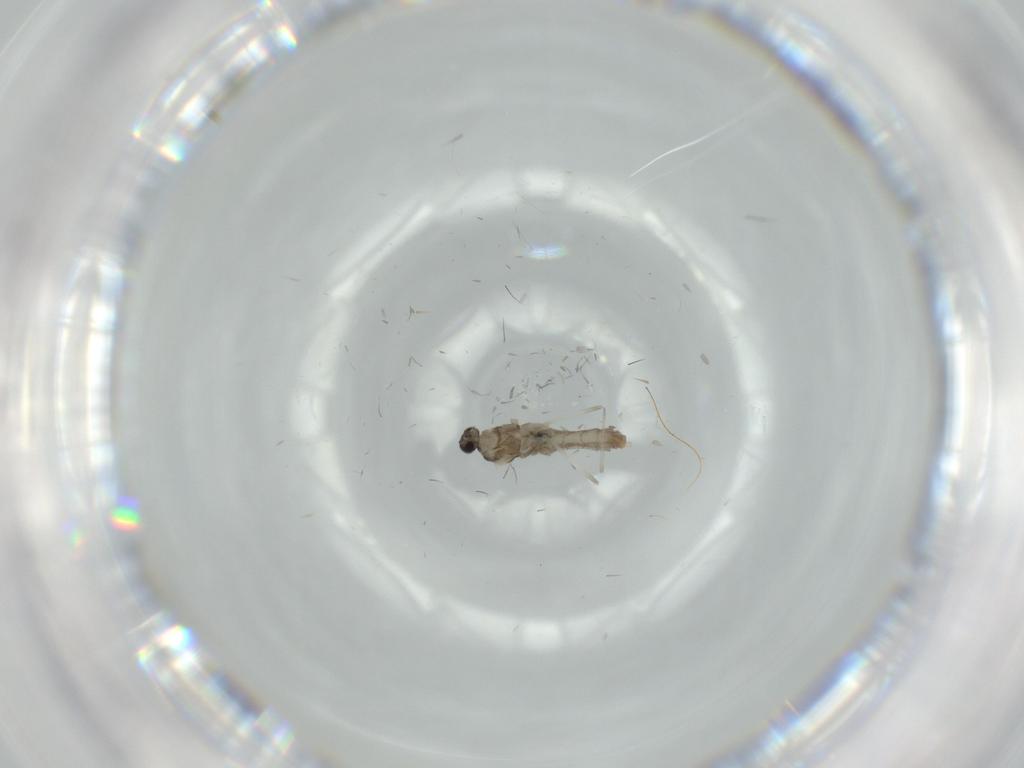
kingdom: Animalia
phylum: Arthropoda
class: Insecta
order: Diptera
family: Cecidomyiidae
